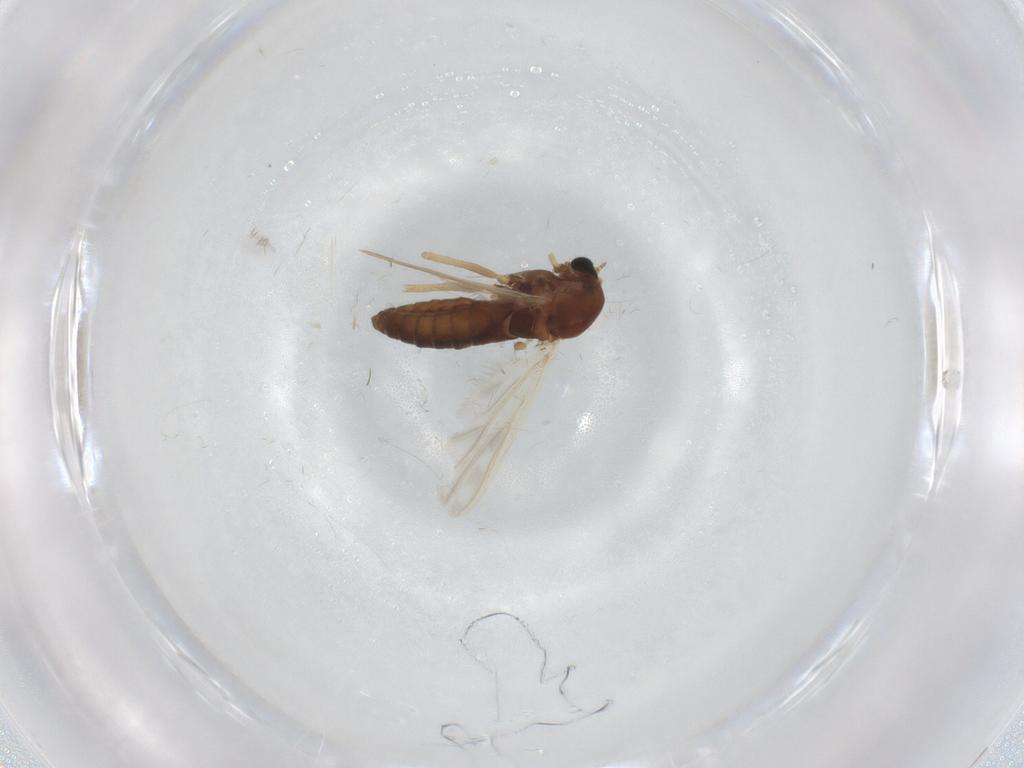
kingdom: Animalia
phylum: Arthropoda
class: Insecta
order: Diptera
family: Chironomidae
